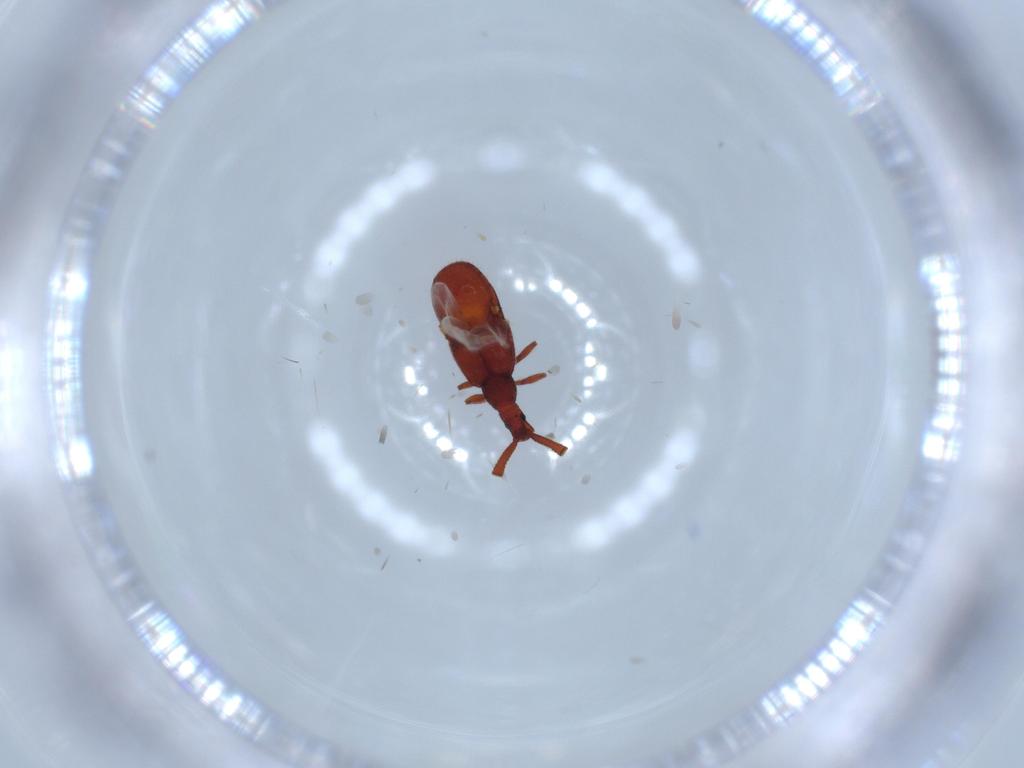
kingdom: Animalia
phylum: Arthropoda
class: Insecta
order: Coleoptera
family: Staphylinidae
